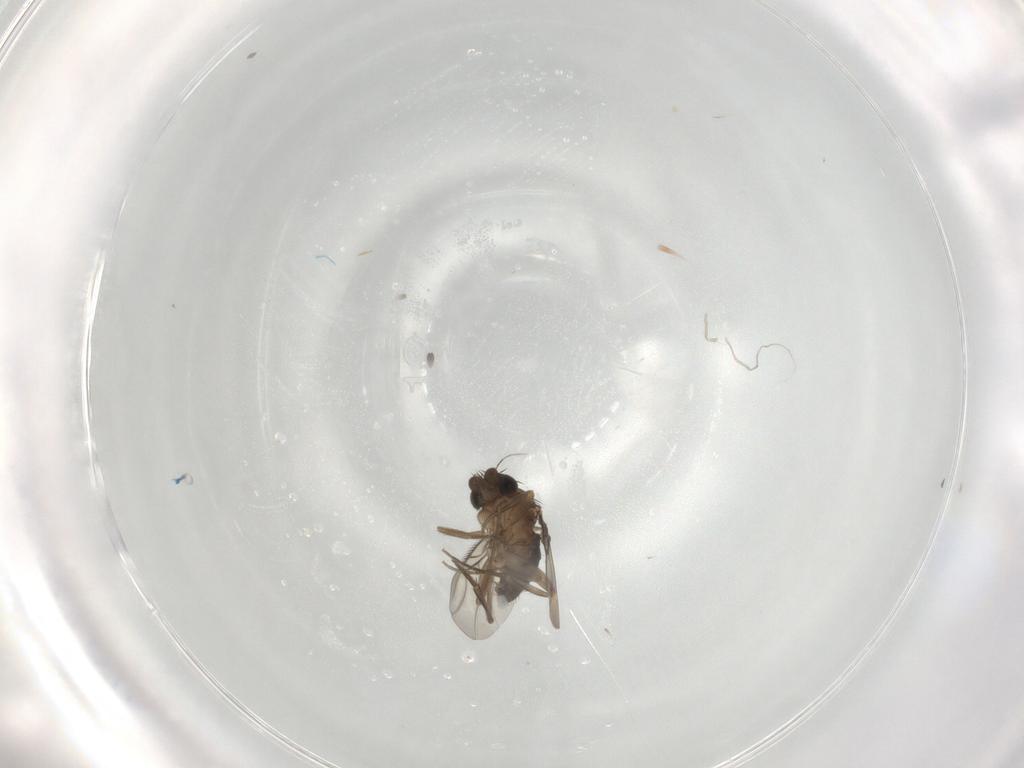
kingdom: Animalia
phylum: Arthropoda
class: Insecta
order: Diptera
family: Phoridae
